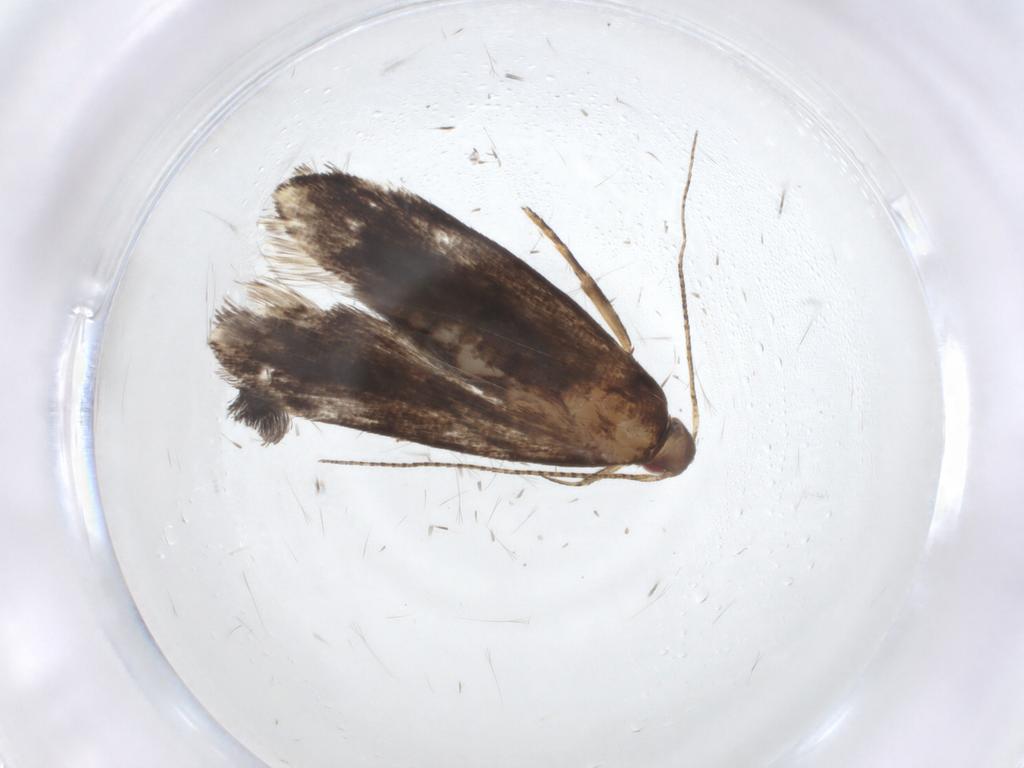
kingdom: Animalia
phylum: Arthropoda
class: Insecta
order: Lepidoptera
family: Gelechiidae
